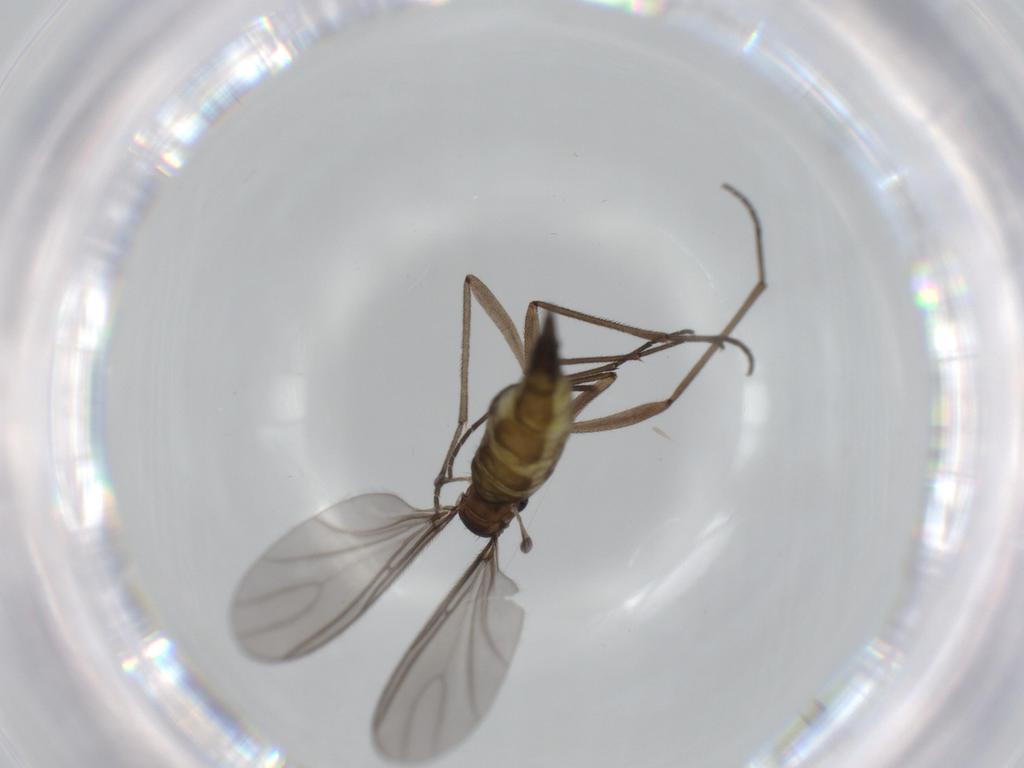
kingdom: Animalia
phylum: Arthropoda
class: Insecta
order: Diptera
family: Sciaridae
